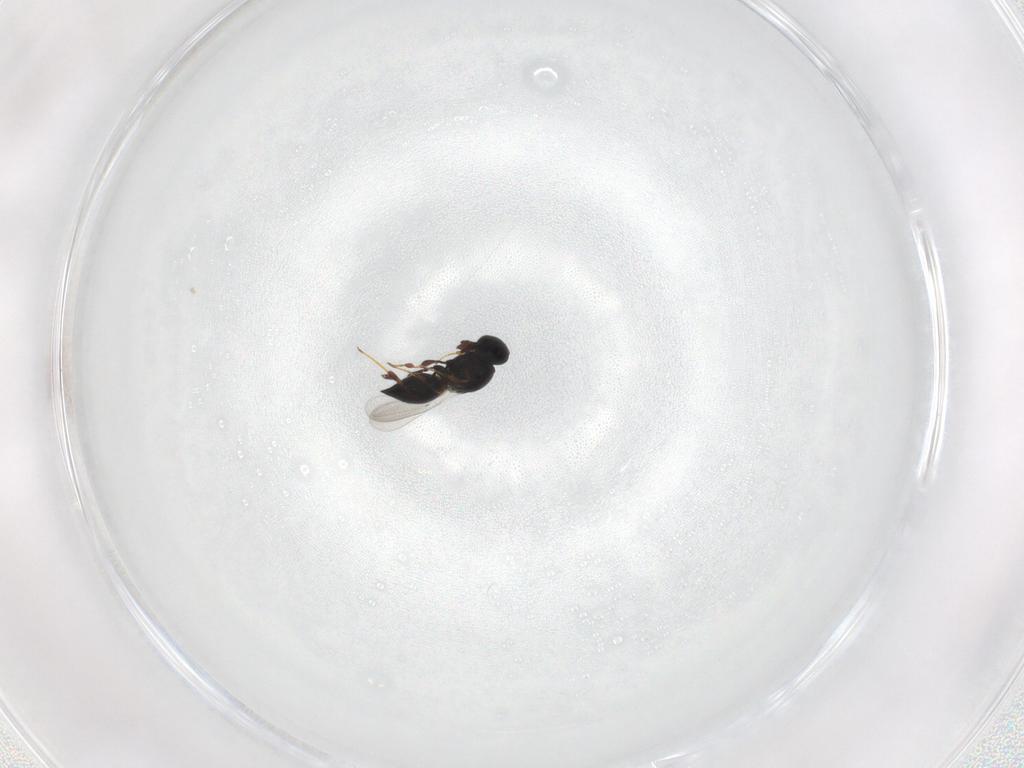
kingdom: Animalia
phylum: Arthropoda
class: Insecta
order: Hymenoptera
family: Platygastridae
